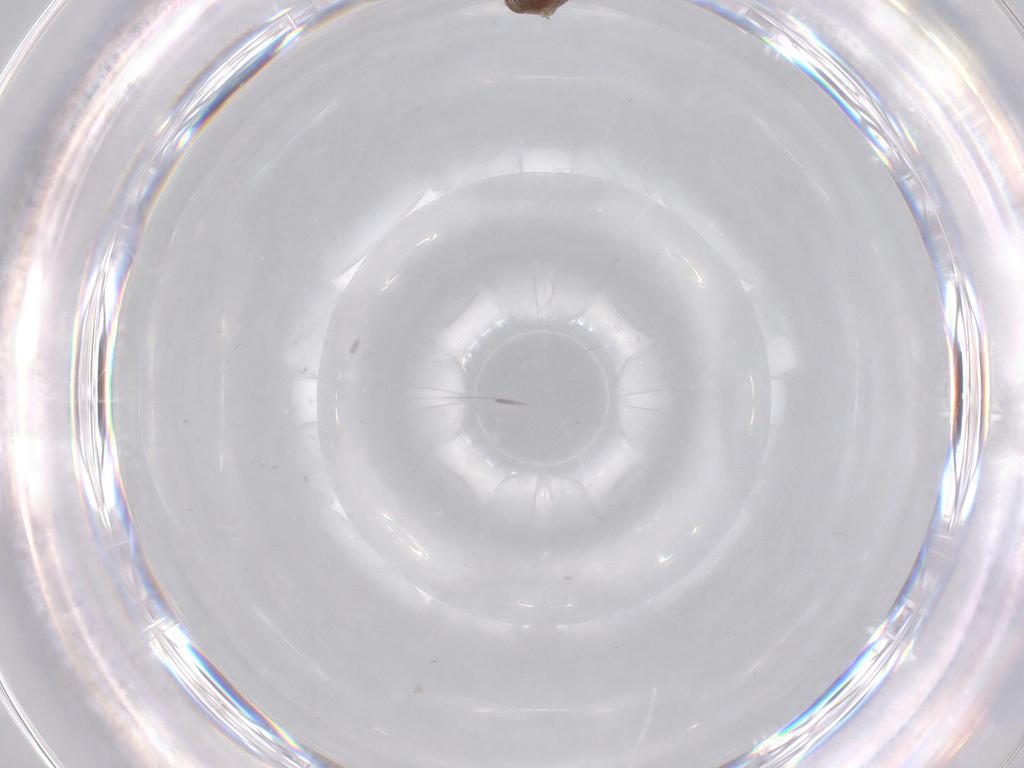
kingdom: Animalia
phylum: Arthropoda
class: Insecta
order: Diptera
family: Cecidomyiidae
